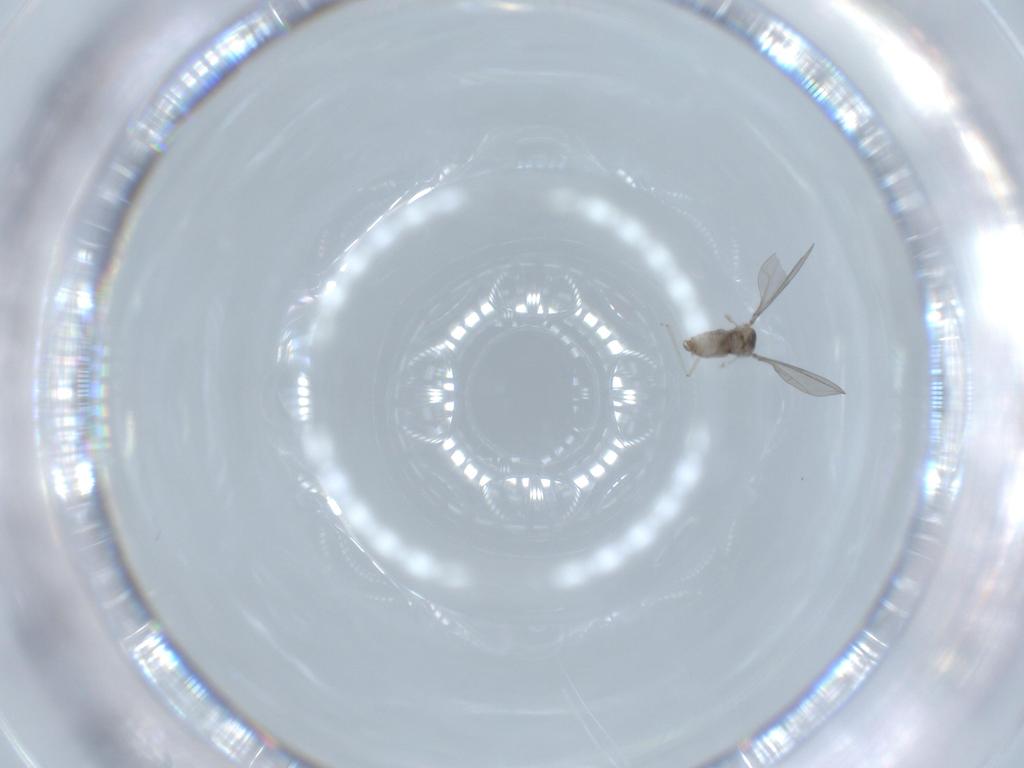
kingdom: Animalia
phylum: Arthropoda
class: Insecta
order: Diptera
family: Cecidomyiidae
